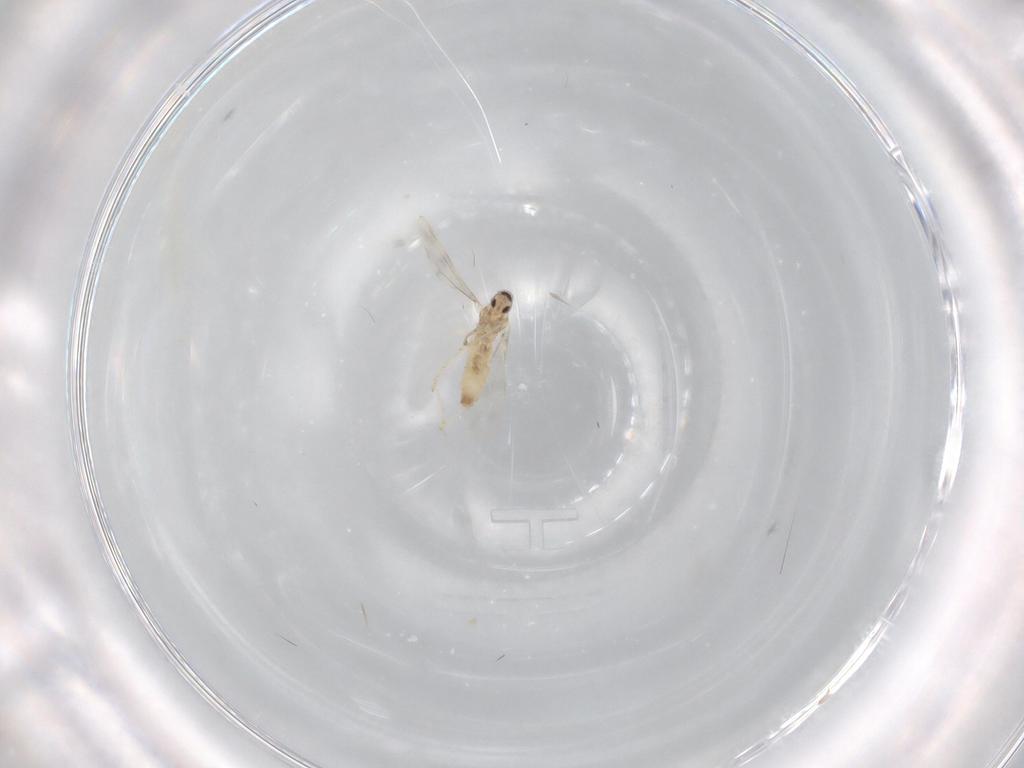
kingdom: Animalia
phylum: Arthropoda
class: Insecta
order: Diptera
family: Cecidomyiidae
